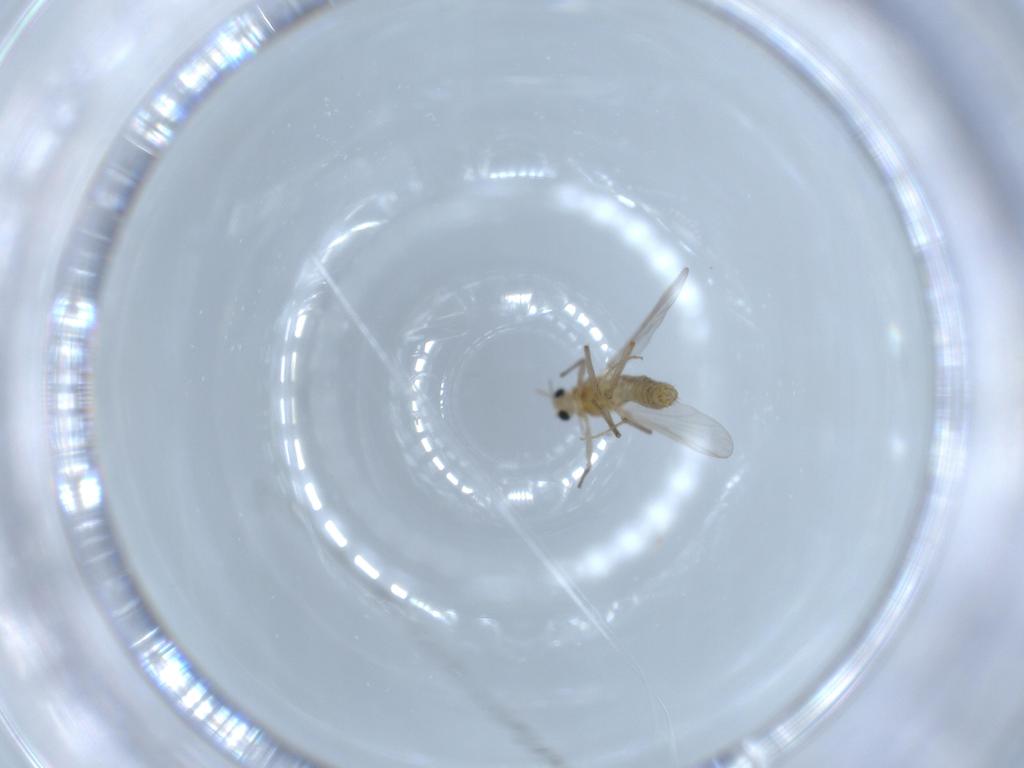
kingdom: Animalia
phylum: Arthropoda
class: Insecta
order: Diptera
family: Chironomidae
